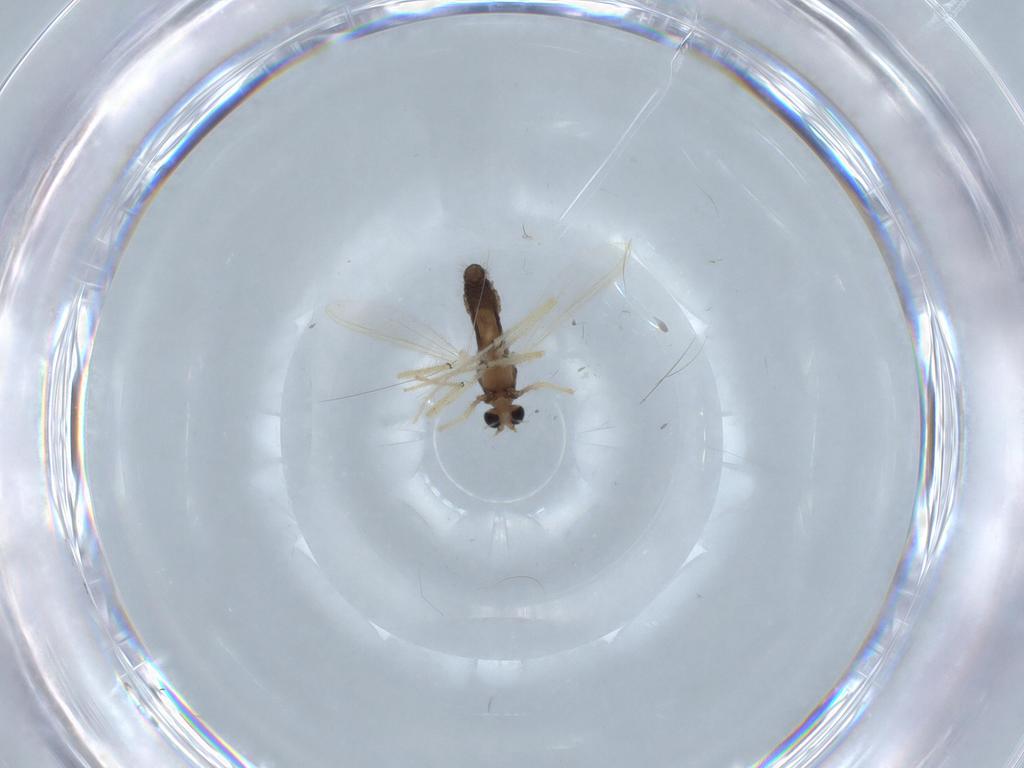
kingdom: Animalia
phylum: Arthropoda
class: Insecta
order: Diptera
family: Chironomidae
